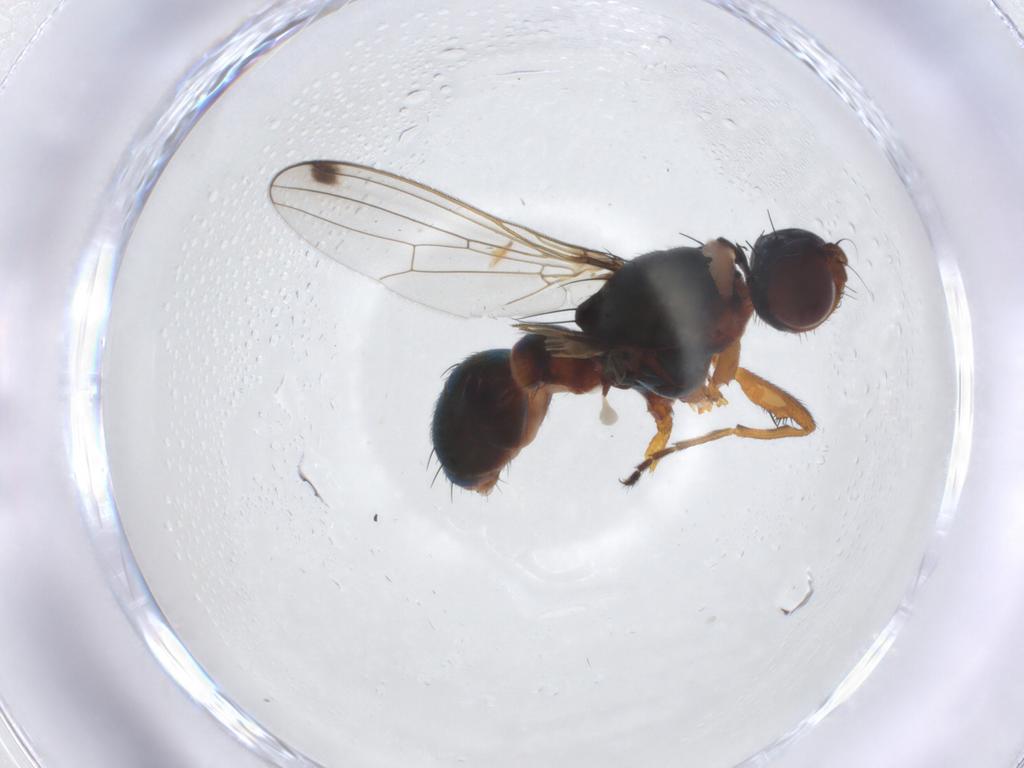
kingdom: Animalia
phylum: Arthropoda
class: Insecta
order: Diptera
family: Sepsidae
